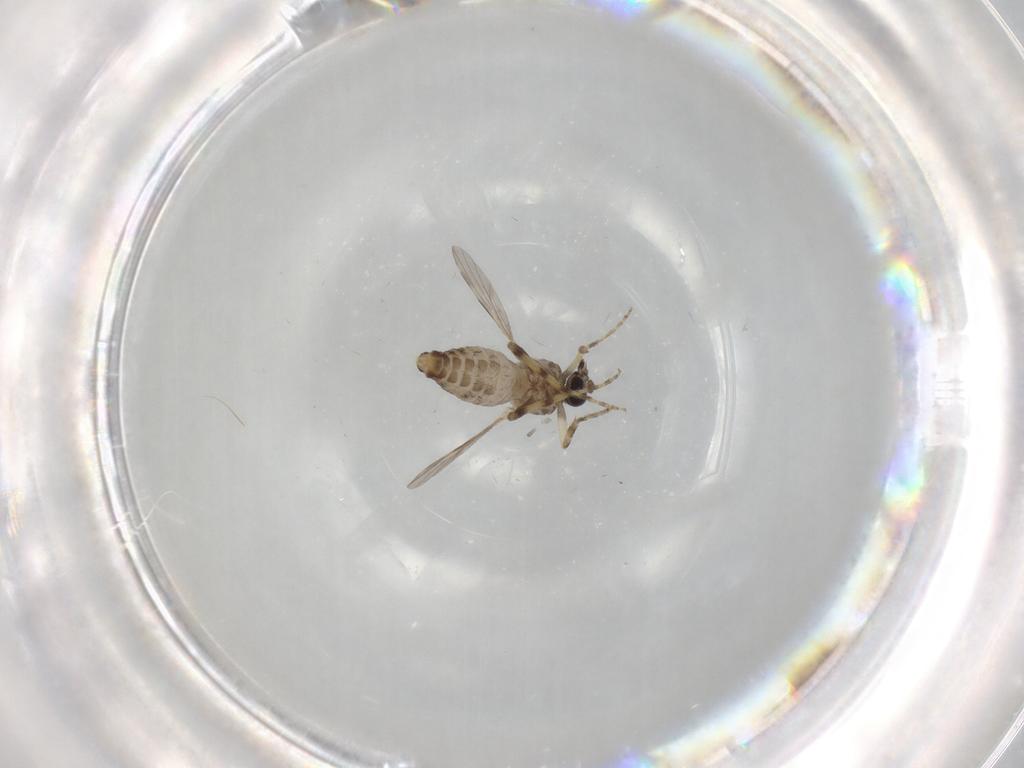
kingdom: Animalia
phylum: Arthropoda
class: Insecta
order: Diptera
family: Ceratopogonidae
